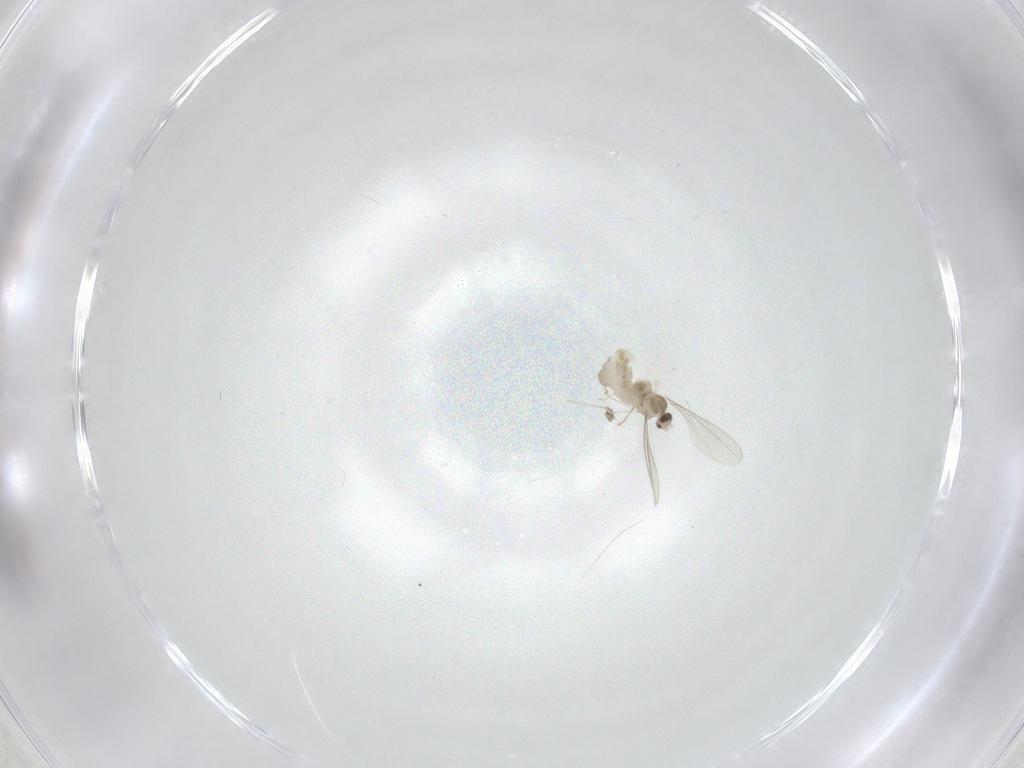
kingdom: Animalia
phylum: Arthropoda
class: Insecta
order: Diptera
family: Cecidomyiidae
